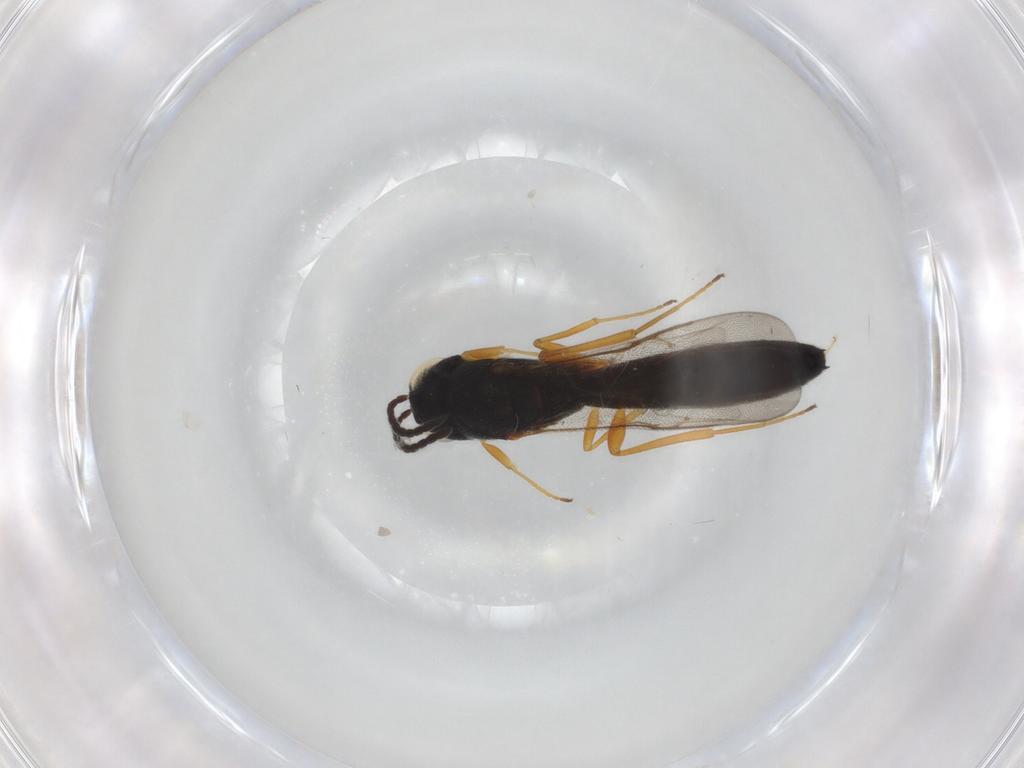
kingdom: Animalia
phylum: Arthropoda
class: Insecta
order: Hymenoptera
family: Scelionidae
